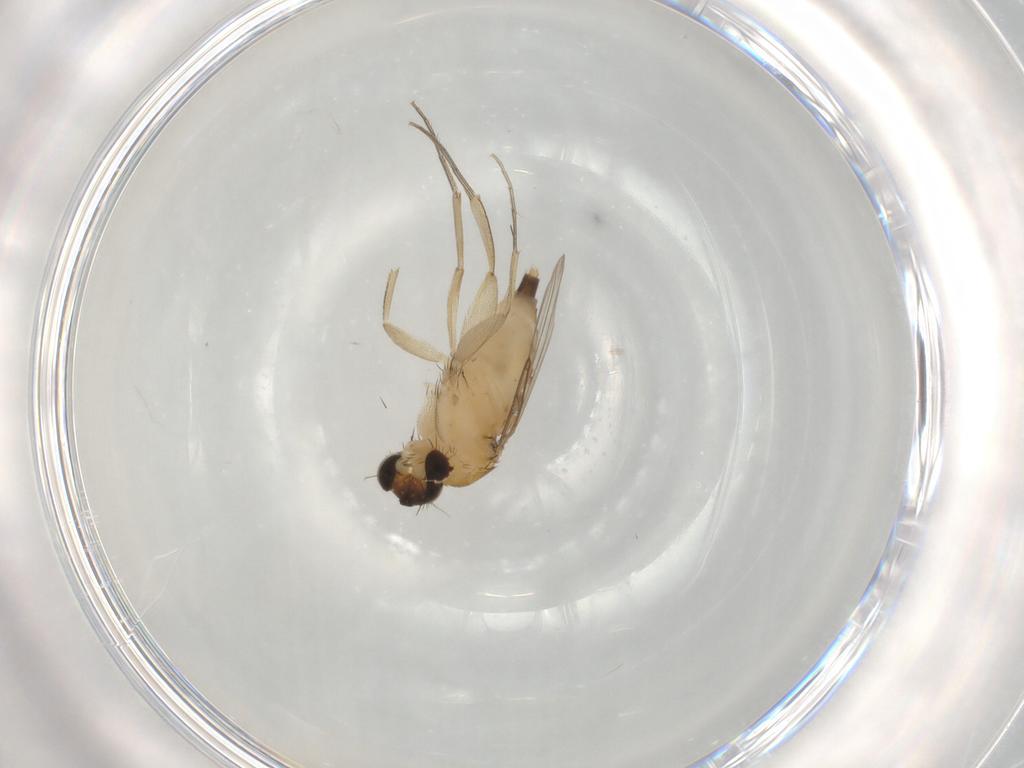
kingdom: Animalia
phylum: Arthropoda
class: Insecta
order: Diptera
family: Phoridae
